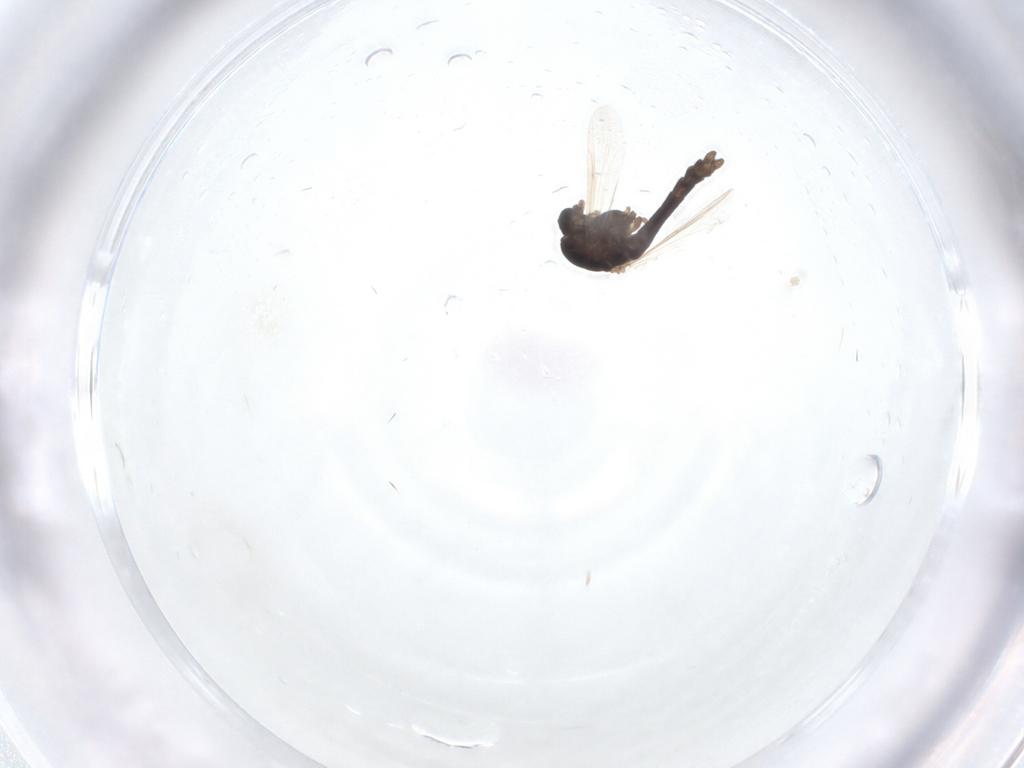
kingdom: Animalia
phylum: Arthropoda
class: Insecta
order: Diptera
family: Chironomidae
